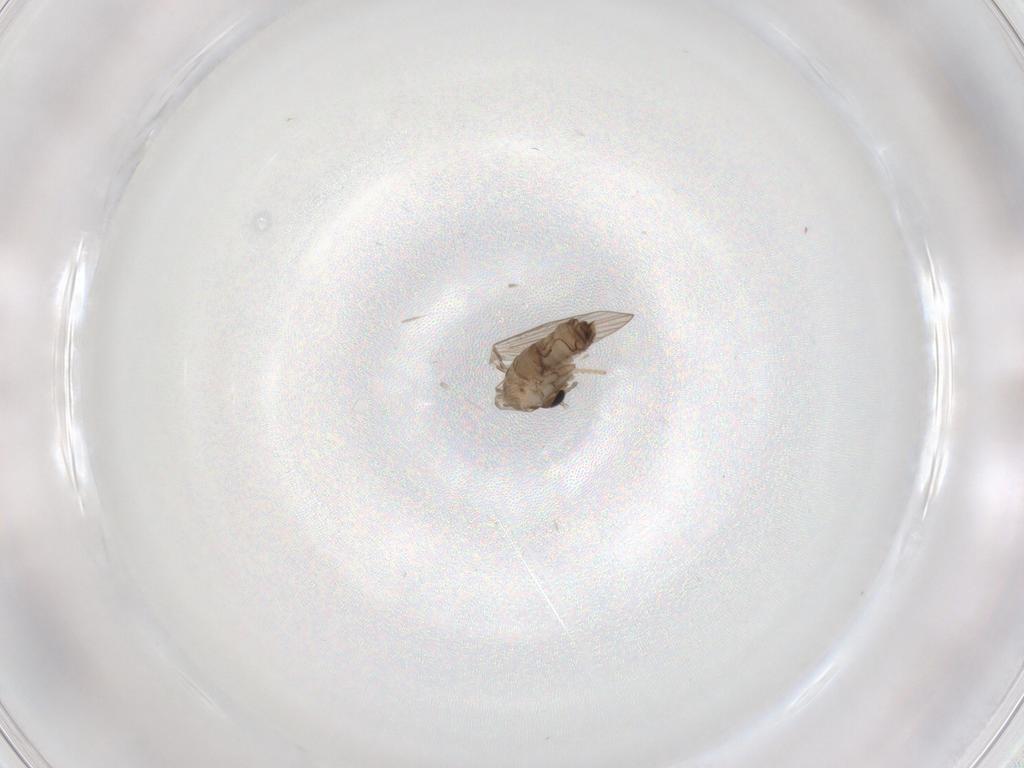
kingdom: Animalia
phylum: Arthropoda
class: Insecta
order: Diptera
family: Psychodidae
